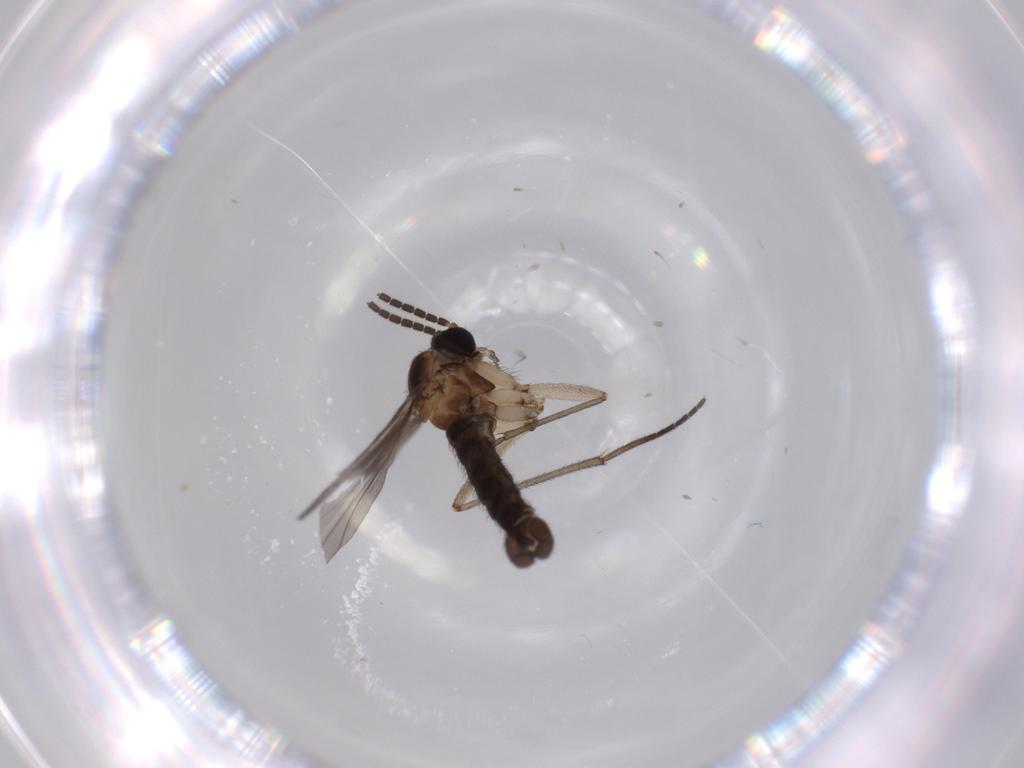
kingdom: Animalia
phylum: Arthropoda
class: Insecta
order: Diptera
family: Sciaridae
